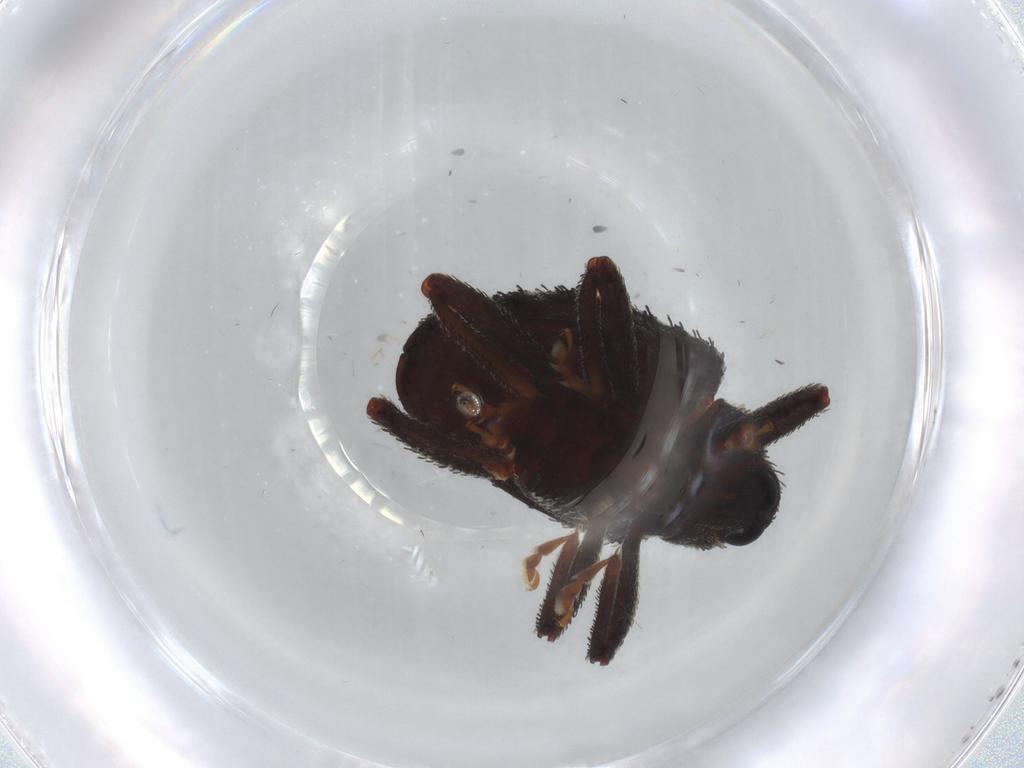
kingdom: Animalia
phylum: Arthropoda
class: Insecta
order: Coleoptera
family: Curculionidae
